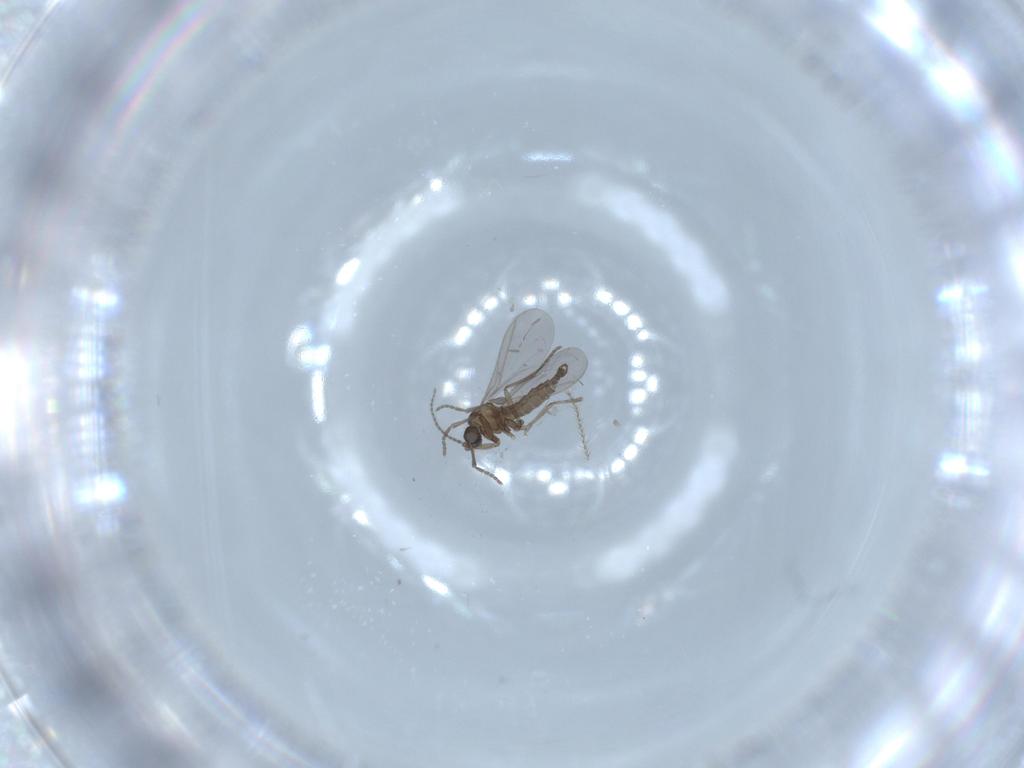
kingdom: Animalia
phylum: Arthropoda
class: Insecta
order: Diptera
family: Sciaridae
